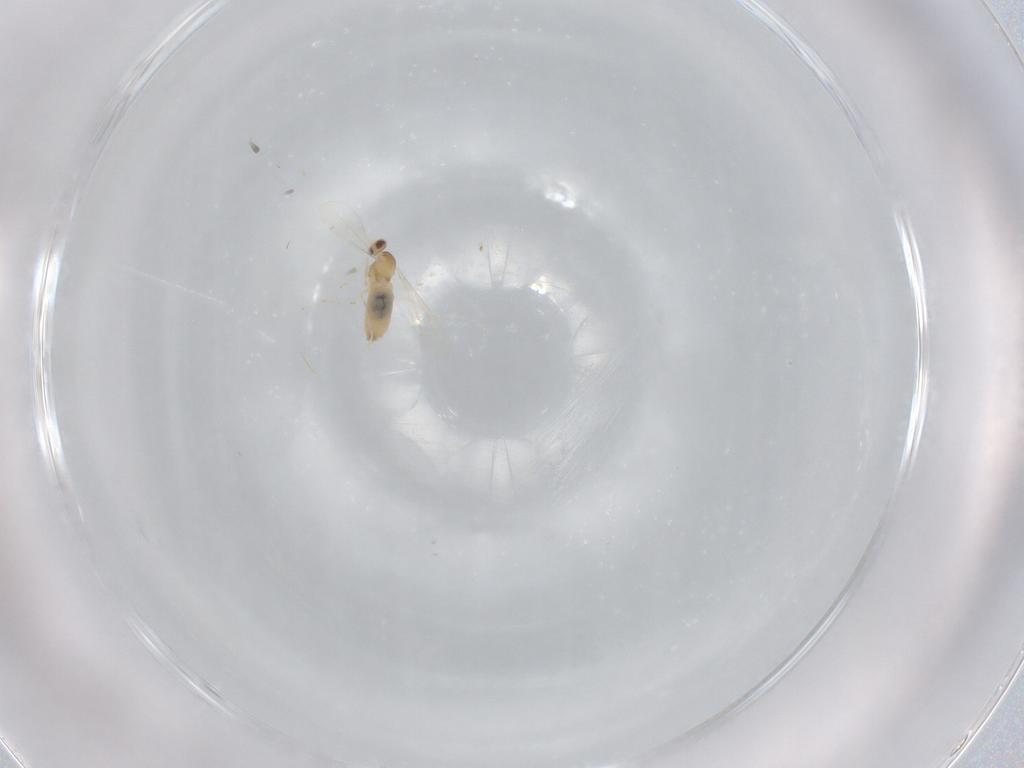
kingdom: Animalia
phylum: Arthropoda
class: Insecta
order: Diptera
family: Cecidomyiidae
